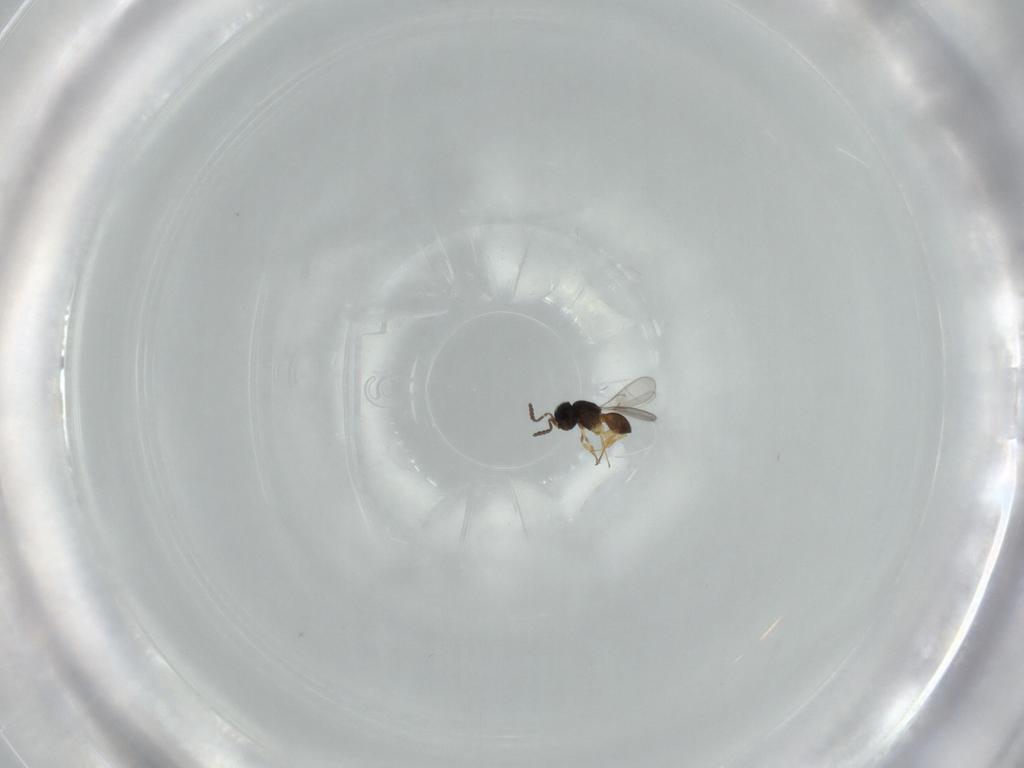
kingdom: Animalia
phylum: Arthropoda
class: Insecta
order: Hymenoptera
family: Scelionidae
